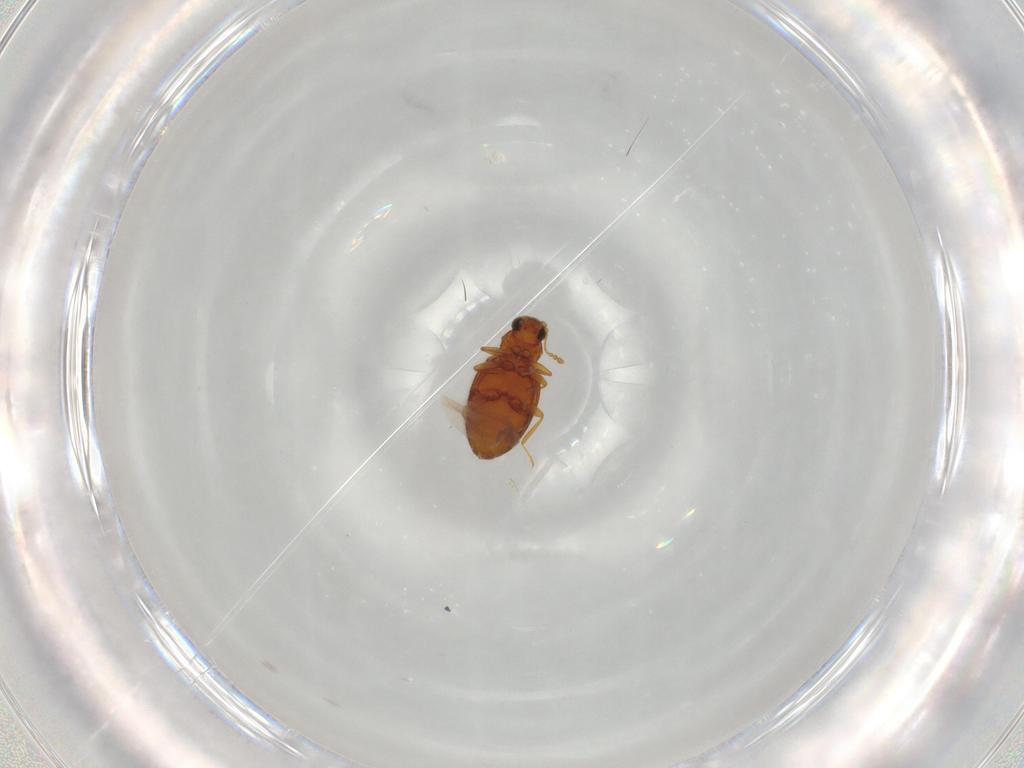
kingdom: Animalia
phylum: Arthropoda
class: Insecta
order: Coleoptera
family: Latridiidae
